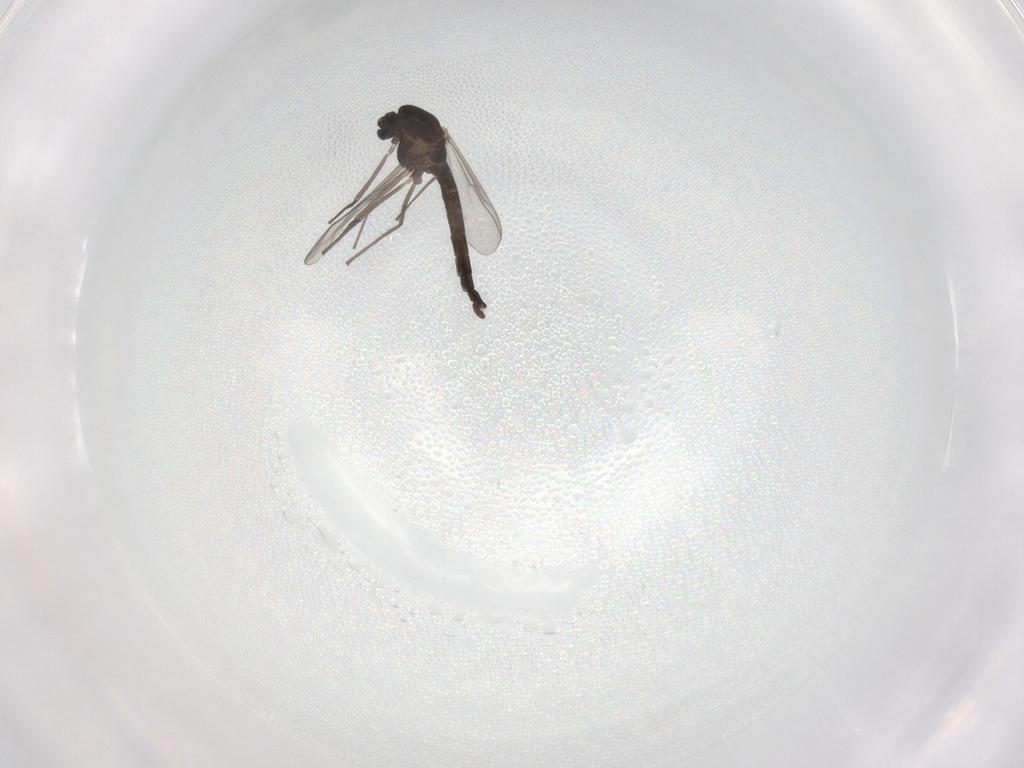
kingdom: Animalia
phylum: Arthropoda
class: Insecta
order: Diptera
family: Chironomidae
